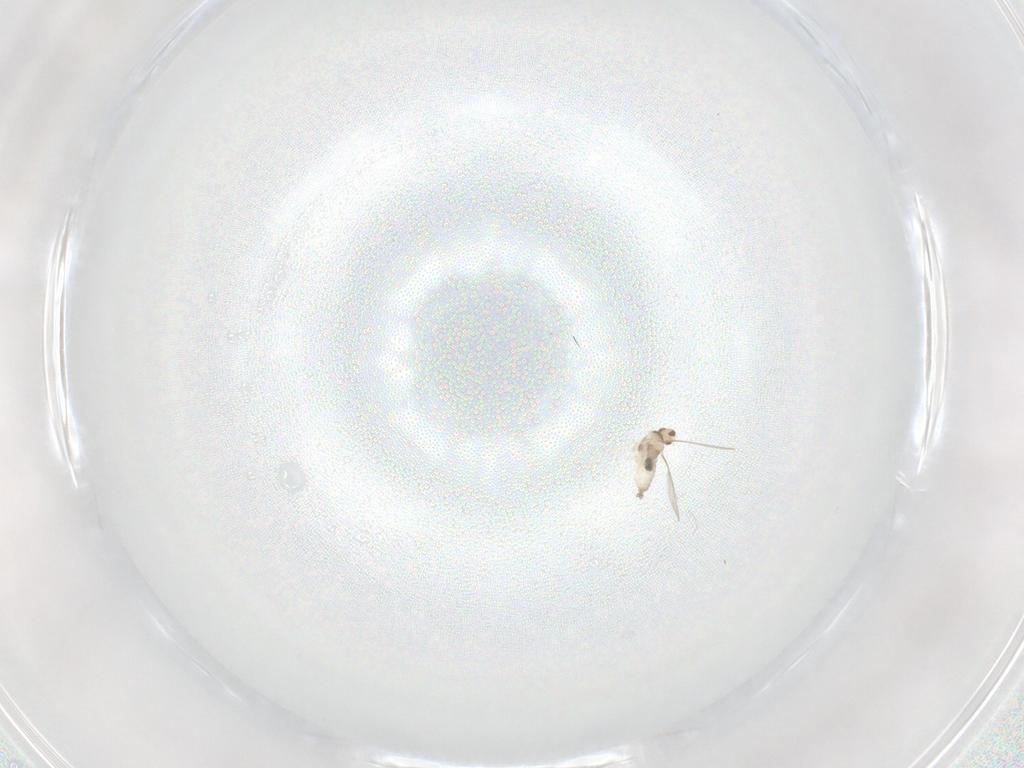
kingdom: Animalia
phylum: Arthropoda
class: Insecta
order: Diptera
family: Cecidomyiidae
